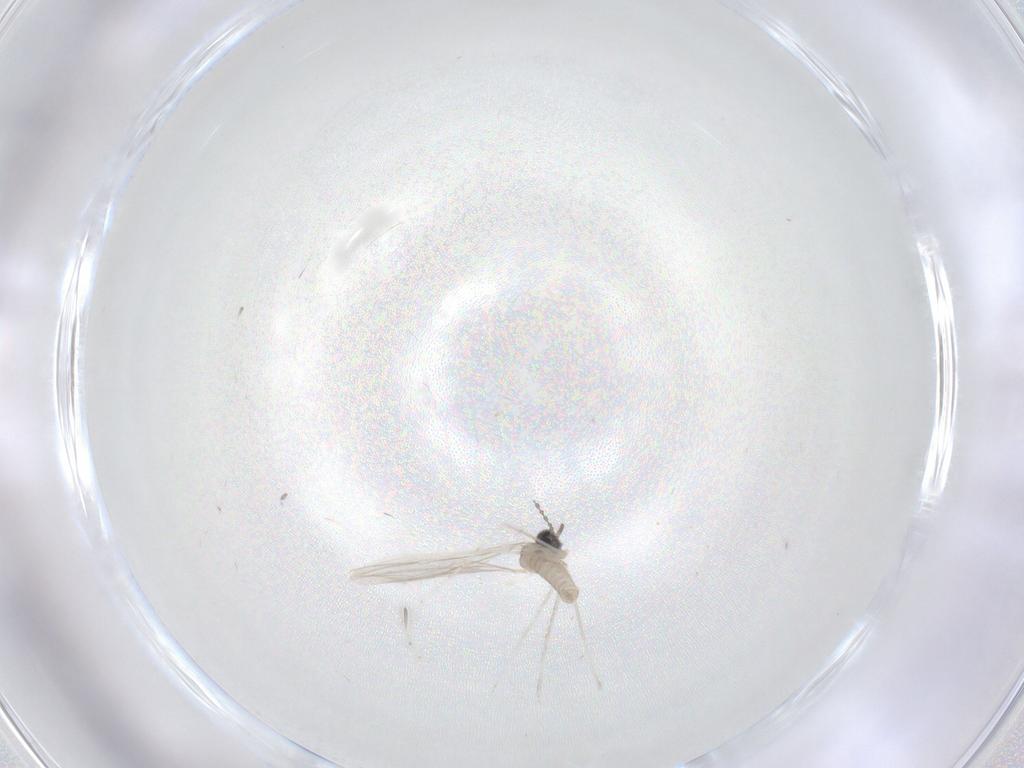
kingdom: Animalia
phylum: Arthropoda
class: Insecta
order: Diptera
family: Cecidomyiidae
